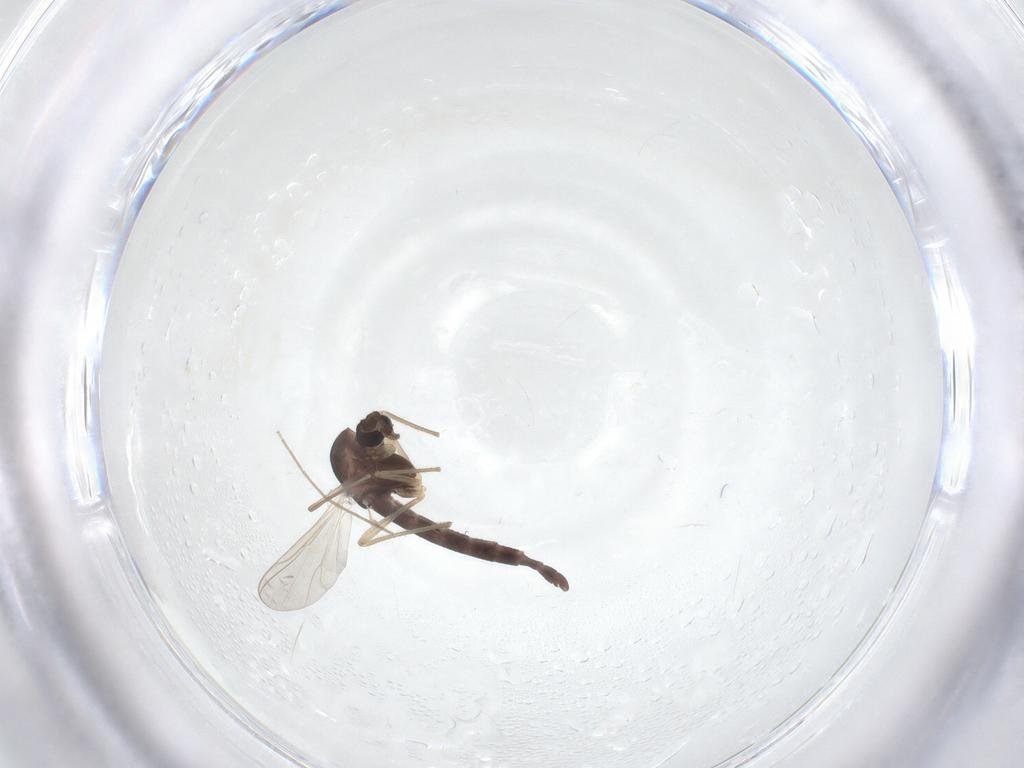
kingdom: Animalia
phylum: Arthropoda
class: Insecta
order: Diptera
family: Chironomidae
